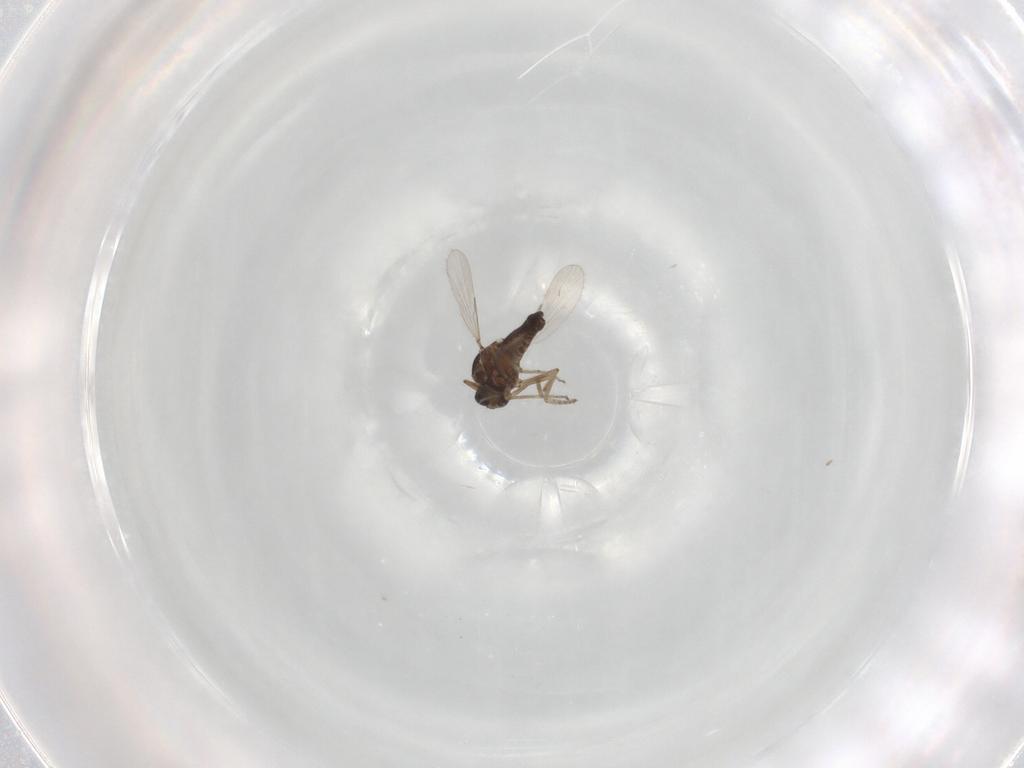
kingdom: Animalia
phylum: Arthropoda
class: Insecta
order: Diptera
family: Ceratopogonidae
